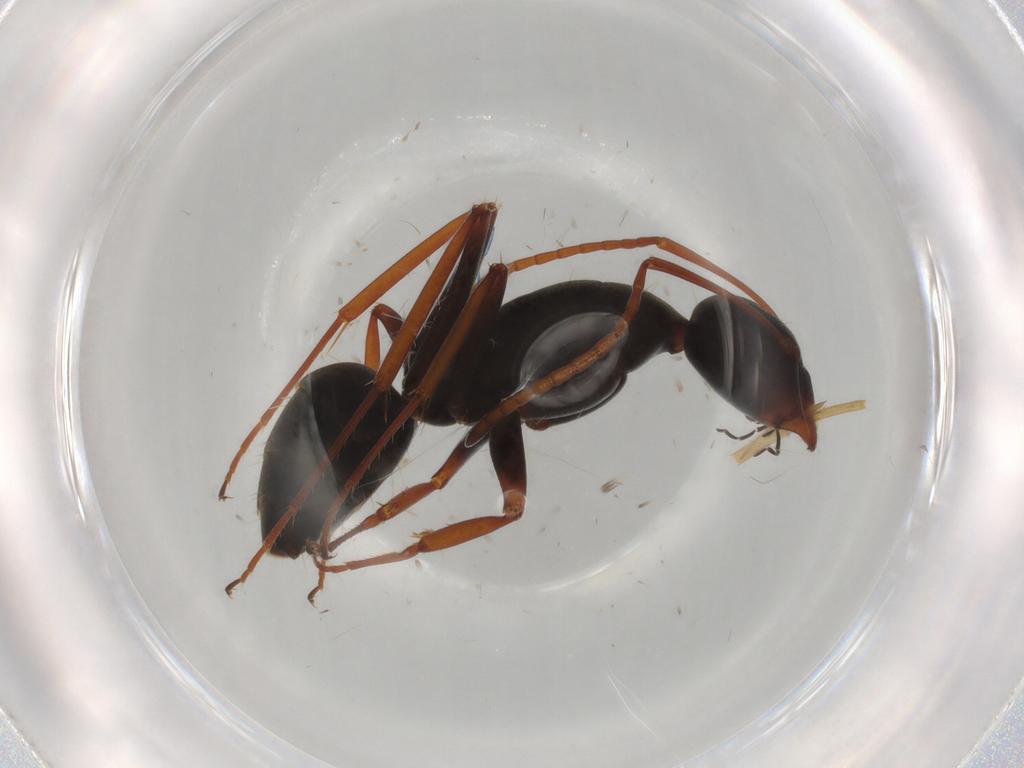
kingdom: Animalia
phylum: Arthropoda
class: Insecta
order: Hymenoptera
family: Formicidae
